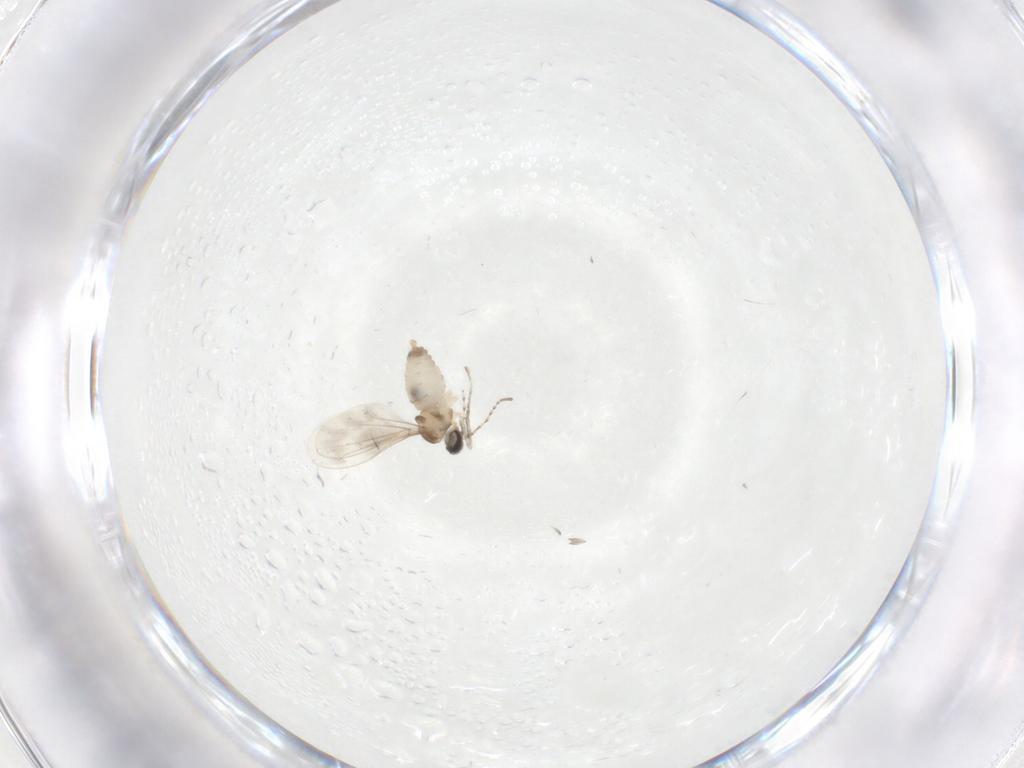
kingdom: Animalia
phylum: Arthropoda
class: Insecta
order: Diptera
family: Cecidomyiidae
